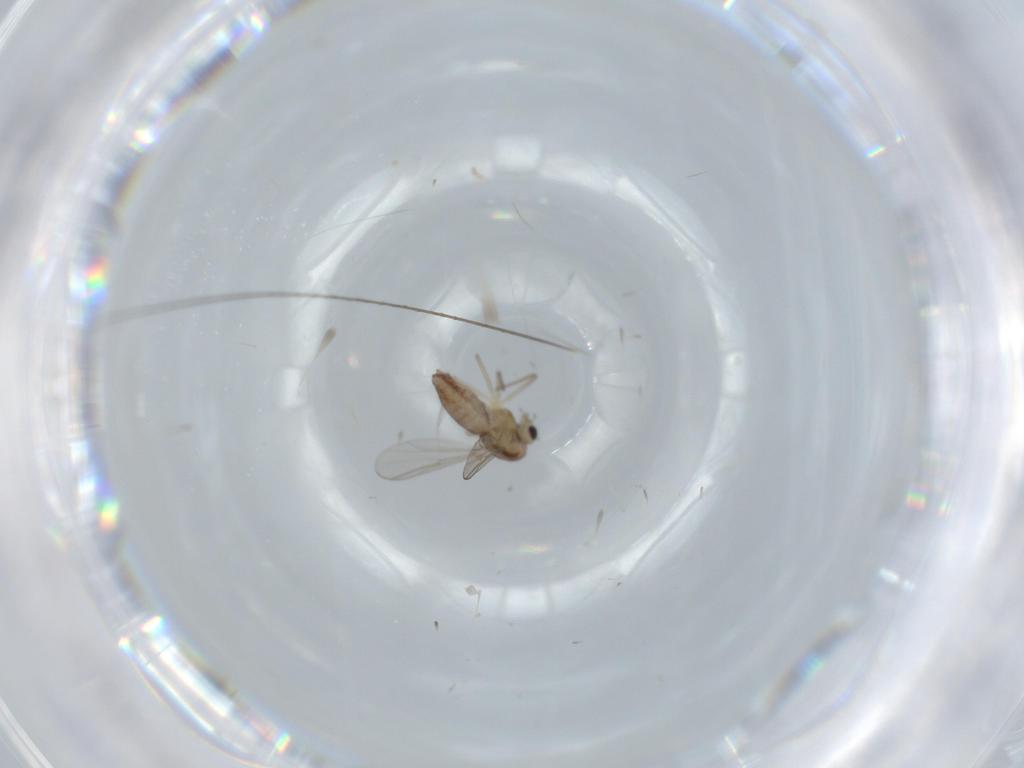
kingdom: Animalia
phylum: Arthropoda
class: Insecta
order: Diptera
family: Chironomidae
